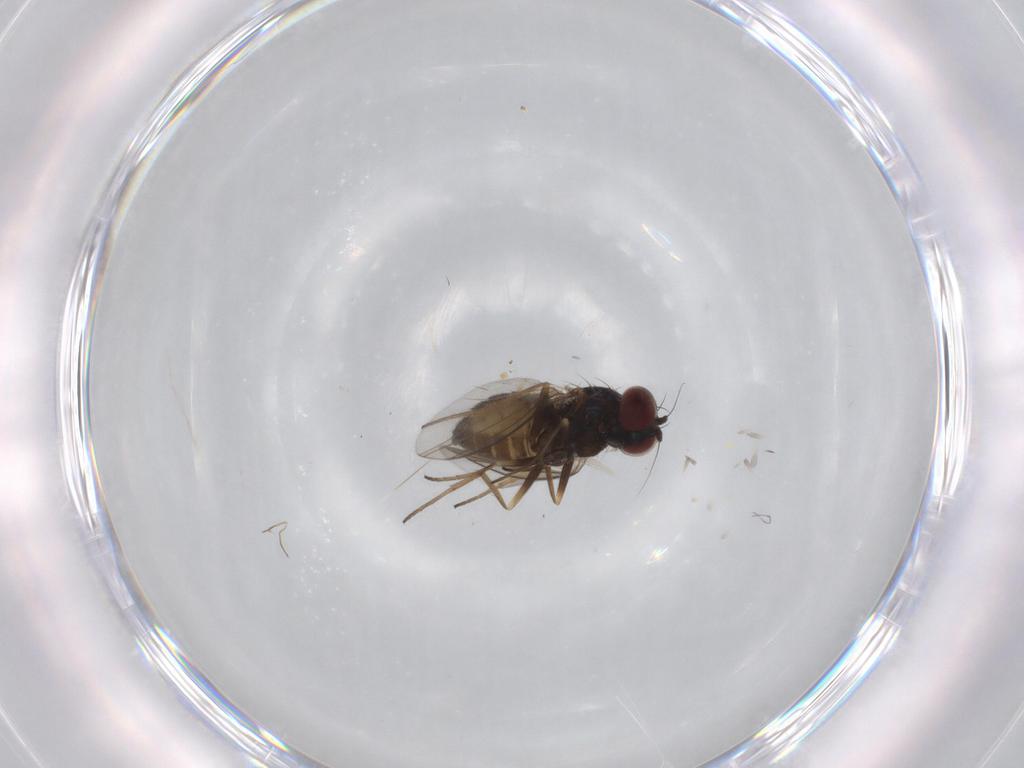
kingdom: Animalia
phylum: Arthropoda
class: Insecta
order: Diptera
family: Dolichopodidae
